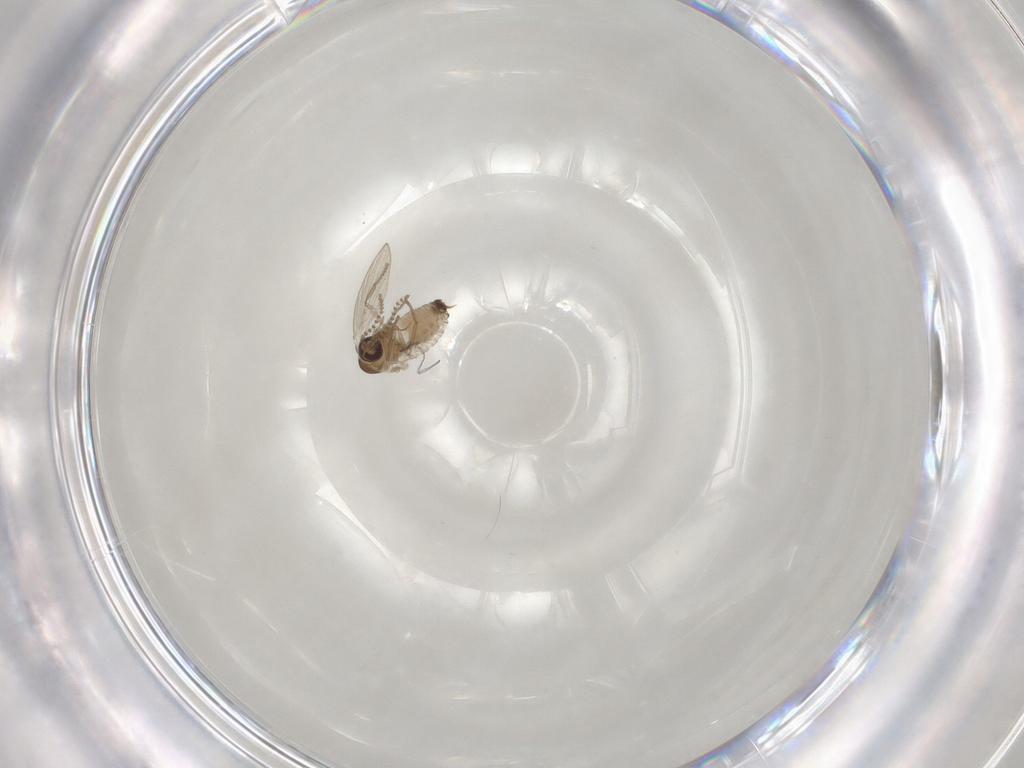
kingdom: Animalia
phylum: Arthropoda
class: Insecta
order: Diptera
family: Psychodidae
